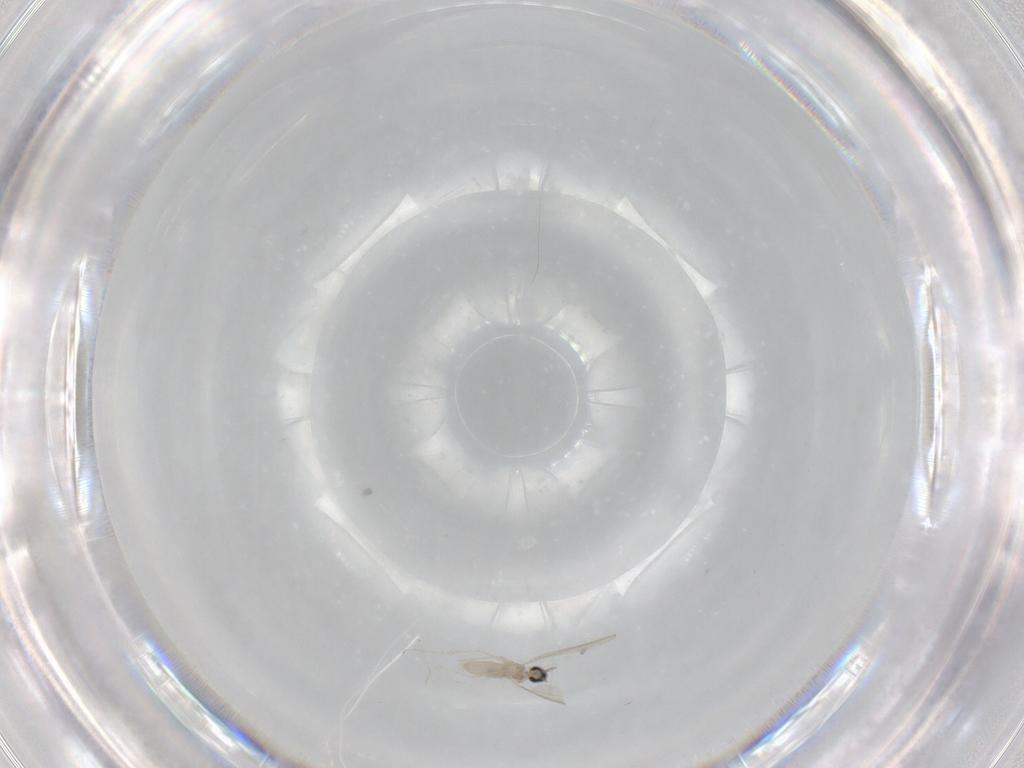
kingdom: Animalia
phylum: Arthropoda
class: Insecta
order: Diptera
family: Cecidomyiidae
